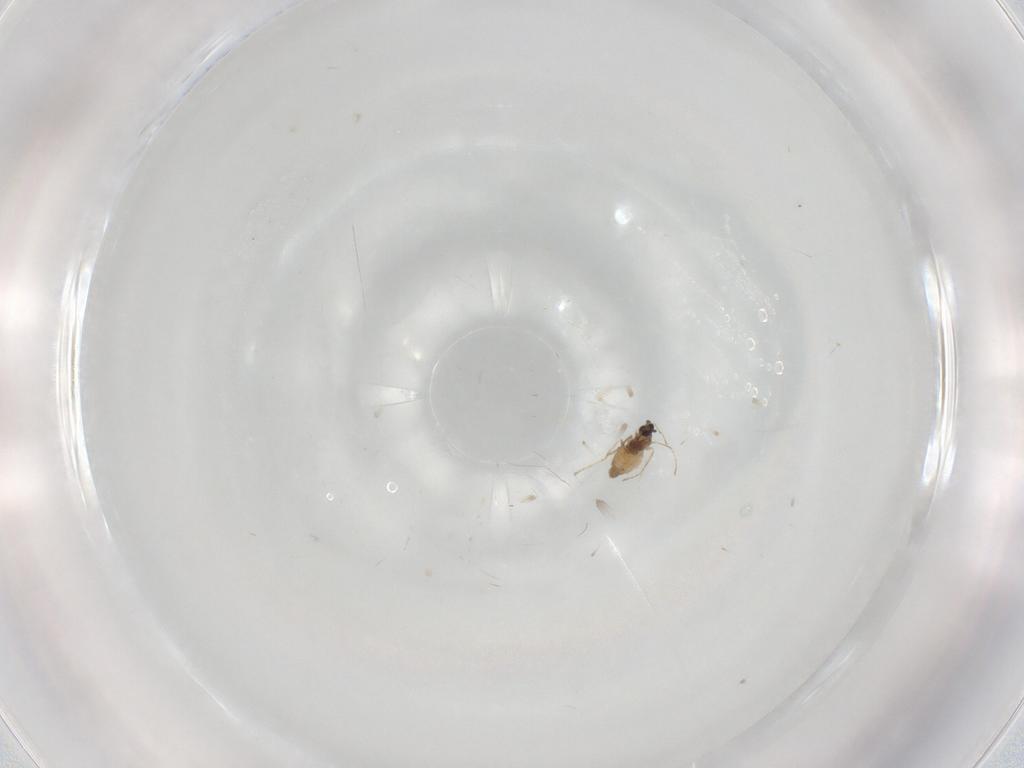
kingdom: Animalia
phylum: Arthropoda
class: Insecta
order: Diptera
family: Cecidomyiidae
